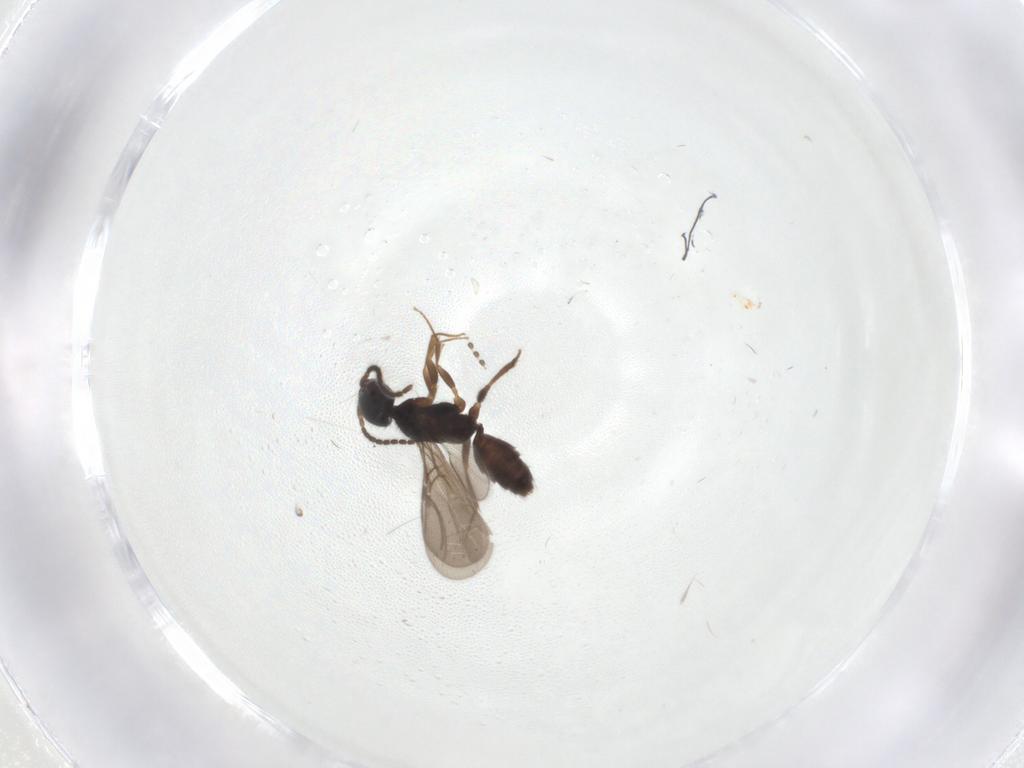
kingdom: Animalia
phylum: Arthropoda
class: Insecta
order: Hymenoptera
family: Bethylidae
